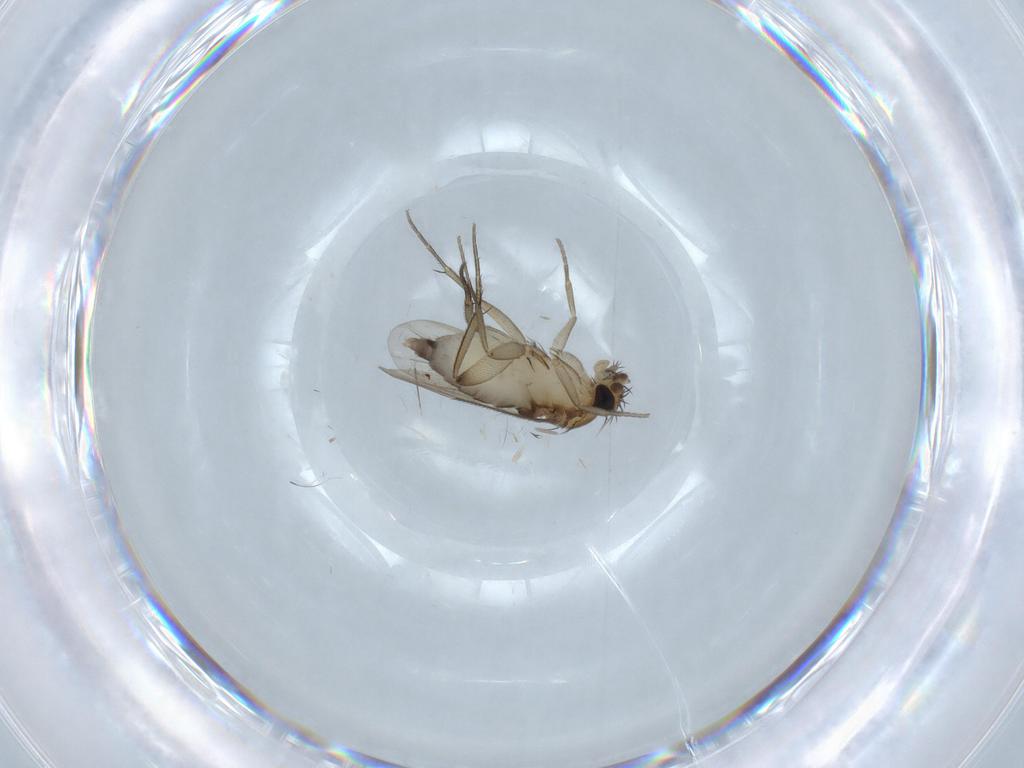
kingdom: Animalia
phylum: Arthropoda
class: Insecta
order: Diptera
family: Phoridae
